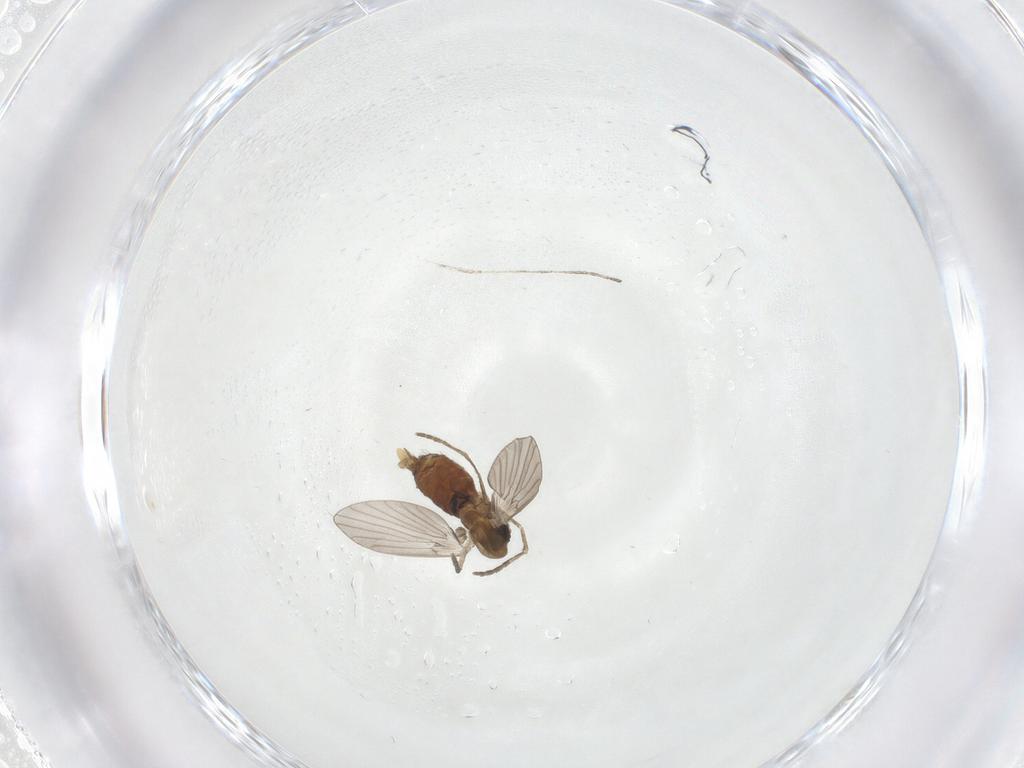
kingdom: Animalia
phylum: Arthropoda
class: Insecta
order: Diptera
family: Cecidomyiidae
